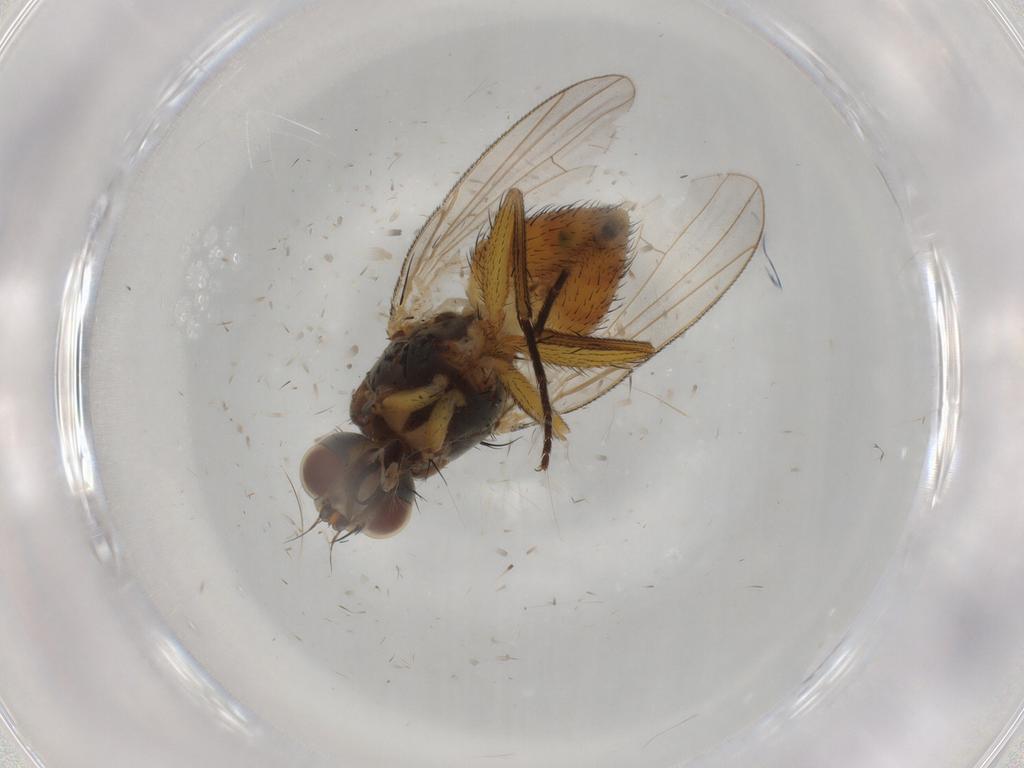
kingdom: Animalia
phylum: Arthropoda
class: Insecta
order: Diptera
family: Muscidae
